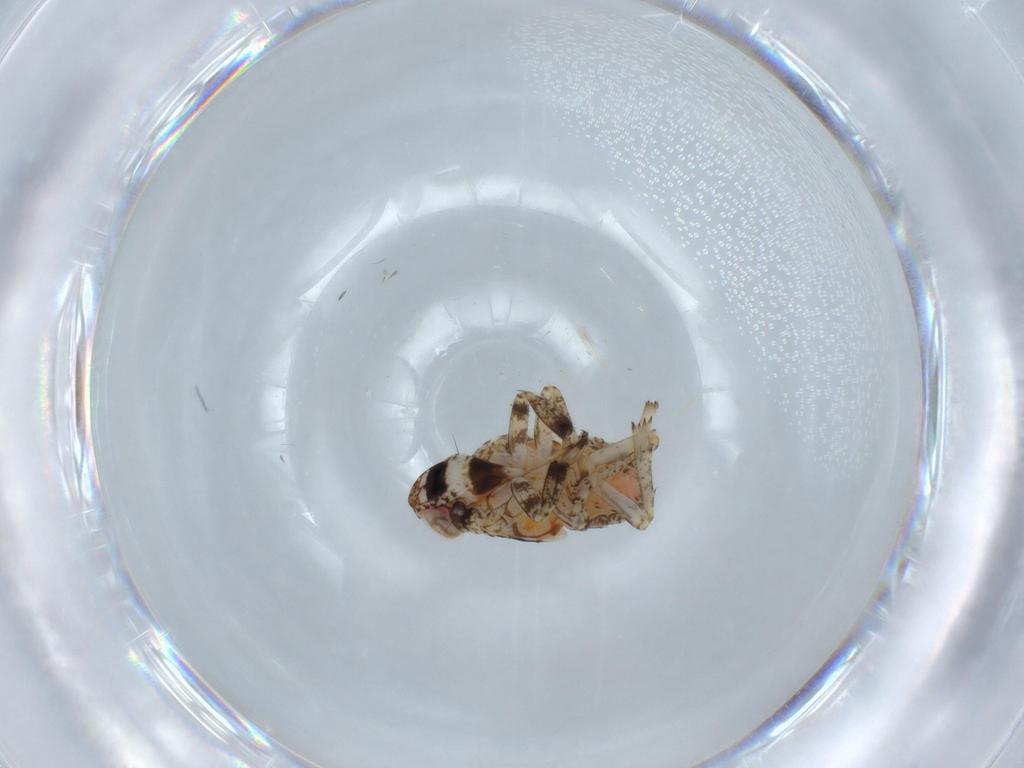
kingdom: Animalia
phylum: Arthropoda
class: Insecta
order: Hemiptera
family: Issidae
